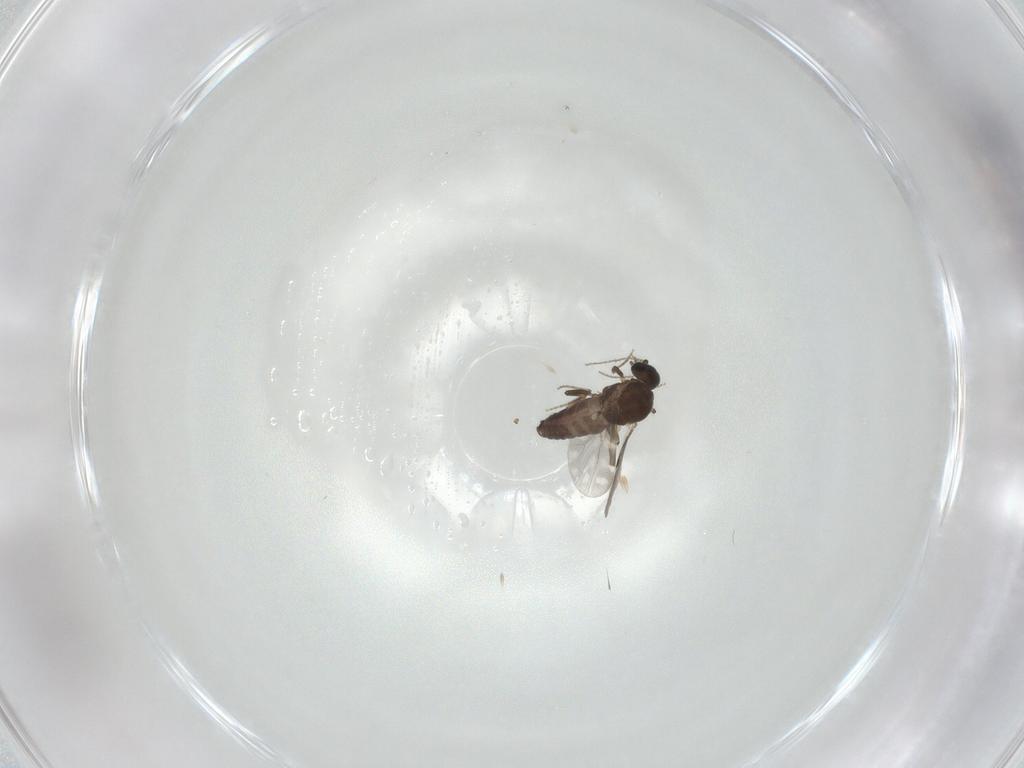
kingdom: Animalia
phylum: Arthropoda
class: Insecta
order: Diptera
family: Ceratopogonidae
